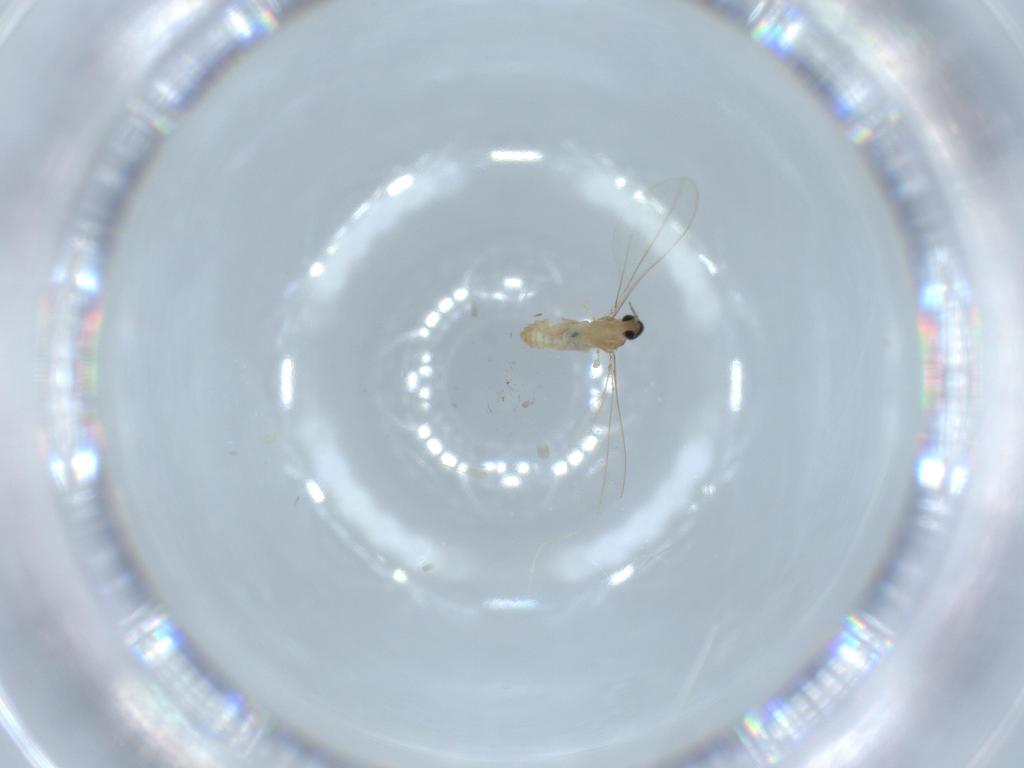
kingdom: Animalia
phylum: Arthropoda
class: Insecta
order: Diptera
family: Cecidomyiidae
